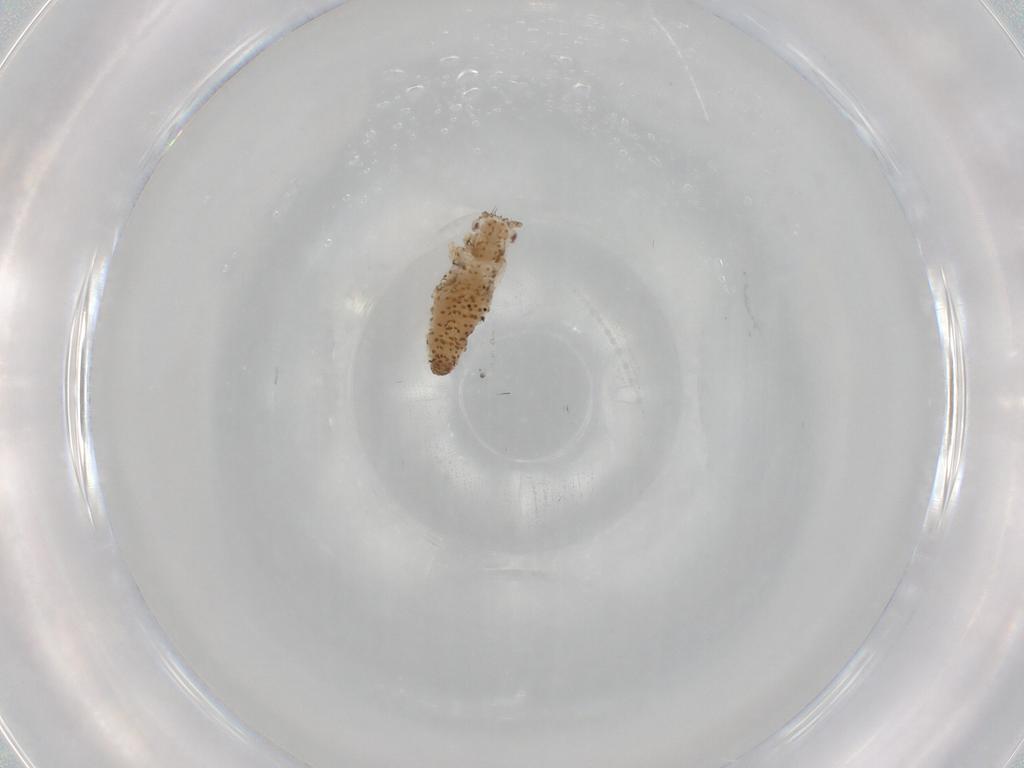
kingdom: Animalia
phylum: Arthropoda
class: Insecta
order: Hemiptera
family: Aphididae
